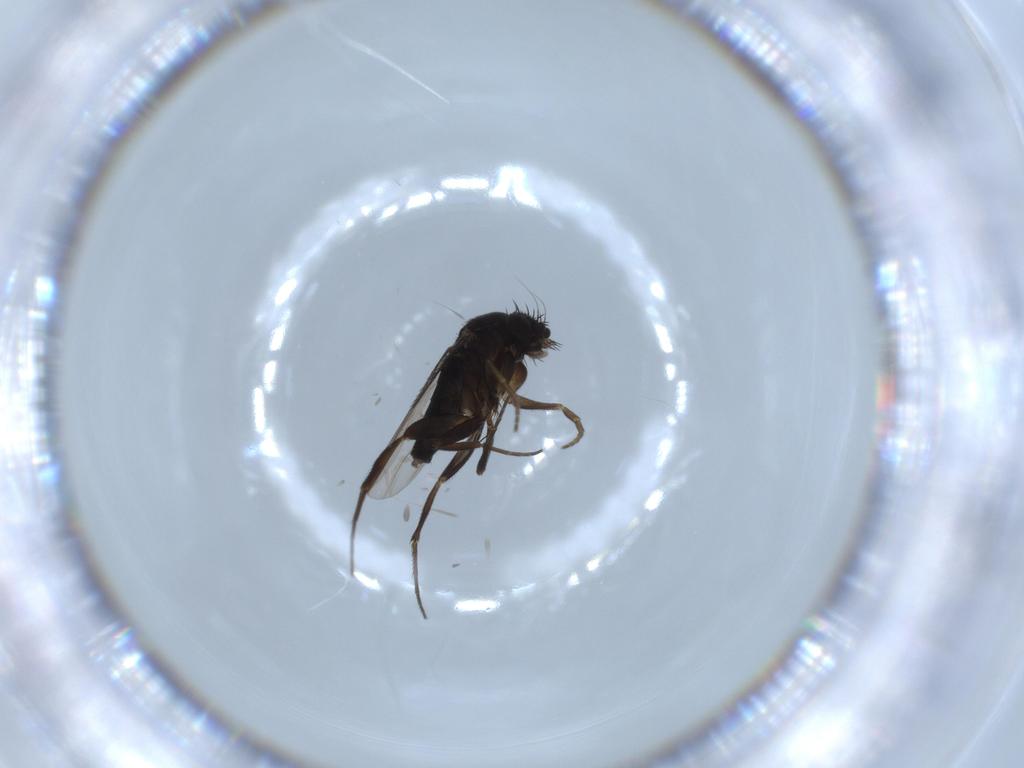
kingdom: Animalia
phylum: Arthropoda
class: Insecta
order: Diptera
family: Phoridae
